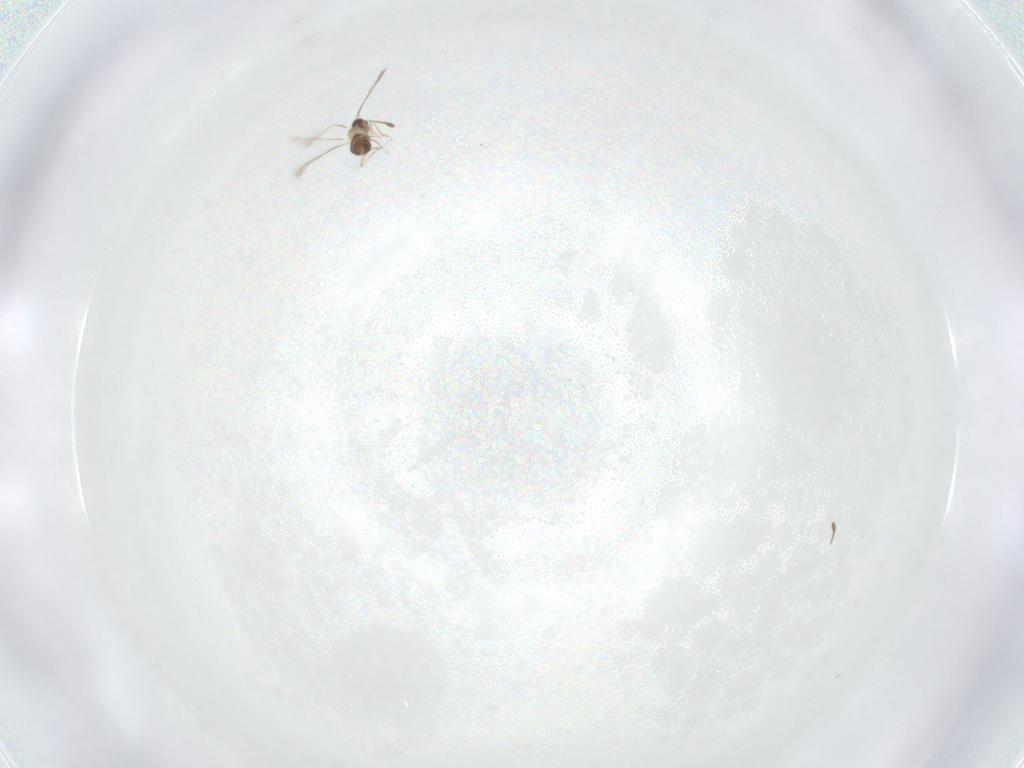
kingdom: Animalia
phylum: Arthropoda
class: Insecta
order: Hymenoptera
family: Mymaridae
